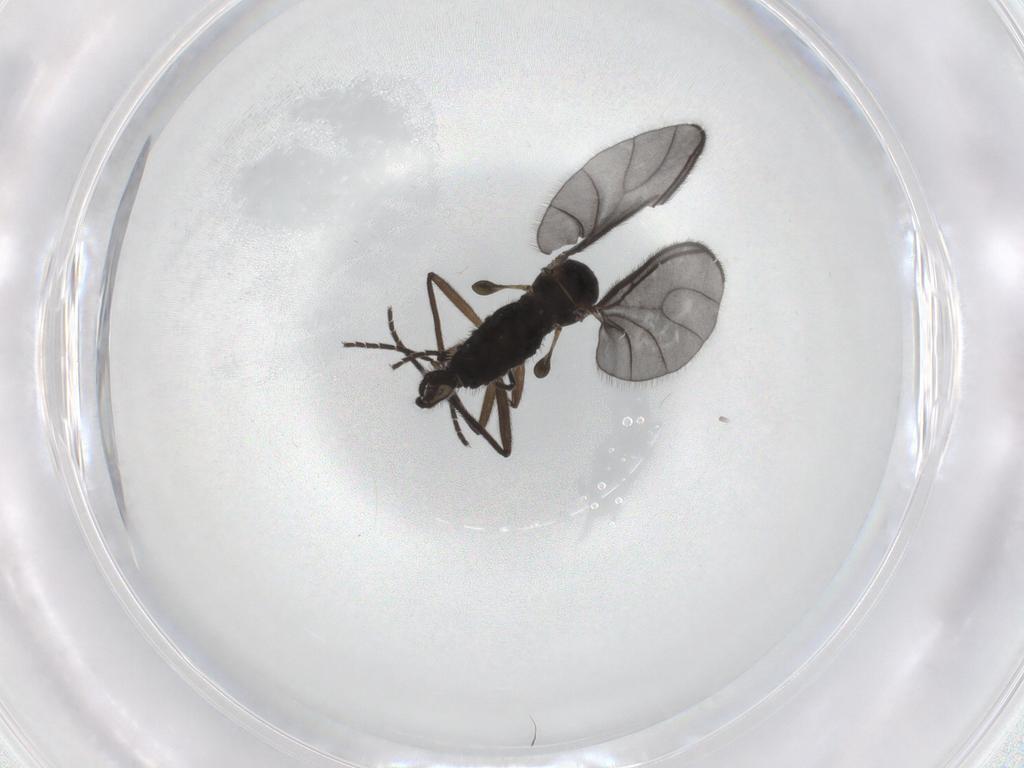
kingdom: Animalia
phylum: Arthropoda
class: Insecta
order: Diptera
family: Sciaridae
